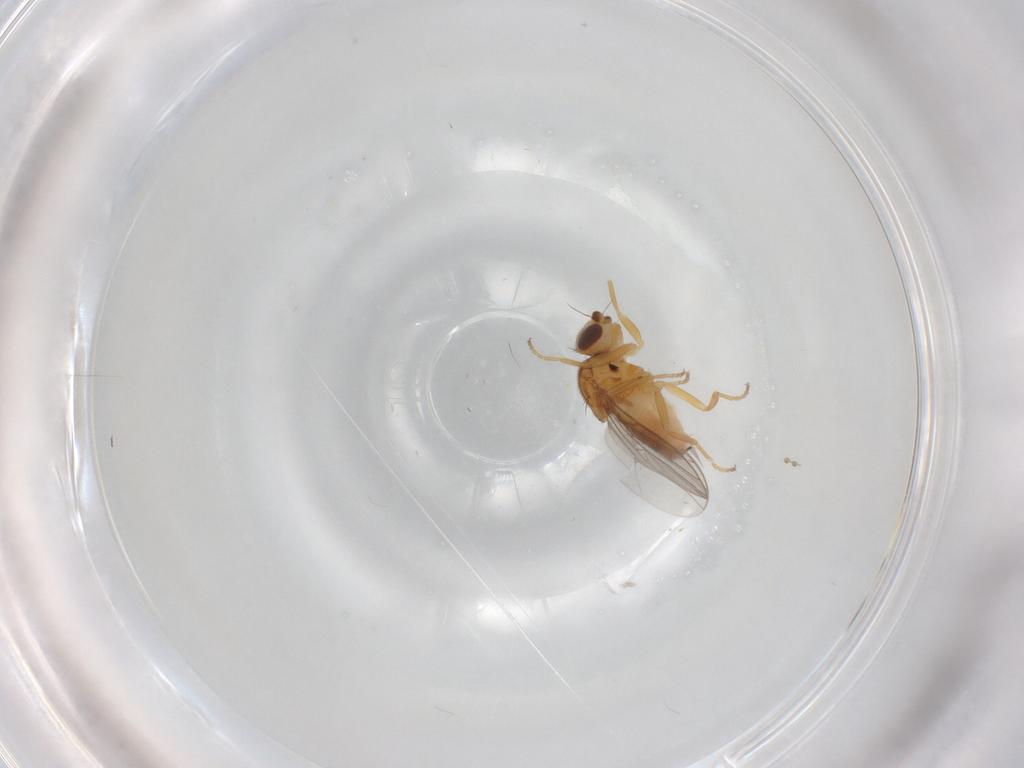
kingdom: Animalia
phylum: Arthropoda
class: Insecta
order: Diptera
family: Chloropidae
